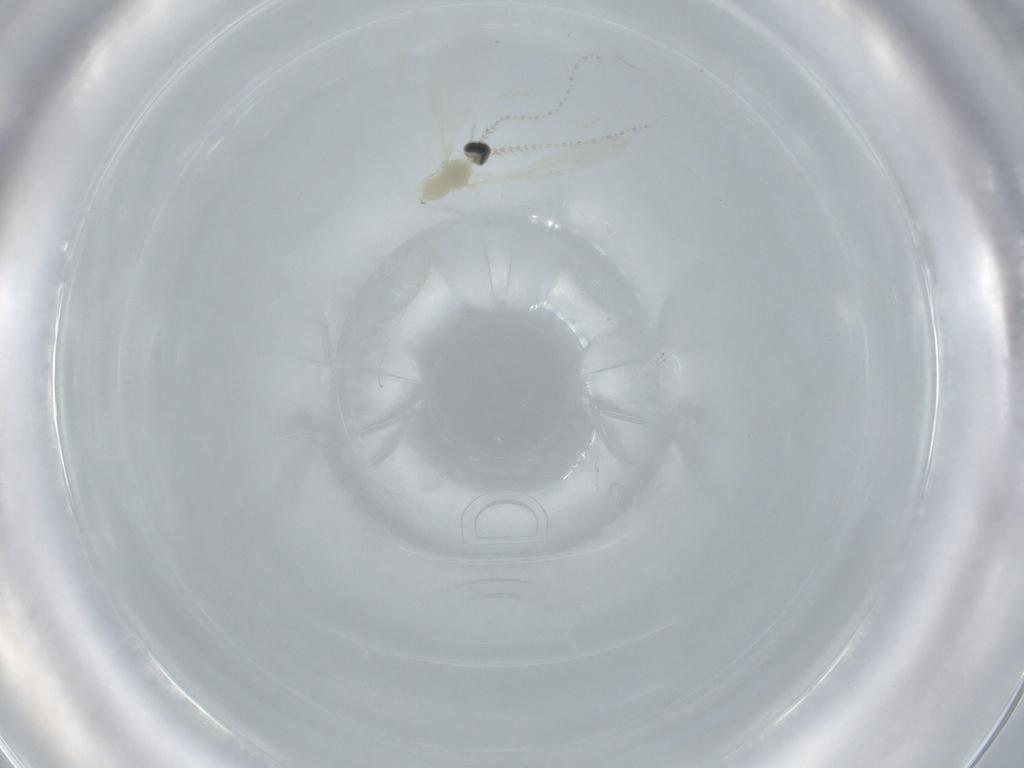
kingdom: Animalia
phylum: Arthropoda
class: Insecta
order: Diptera
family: Cecidomyiidae
